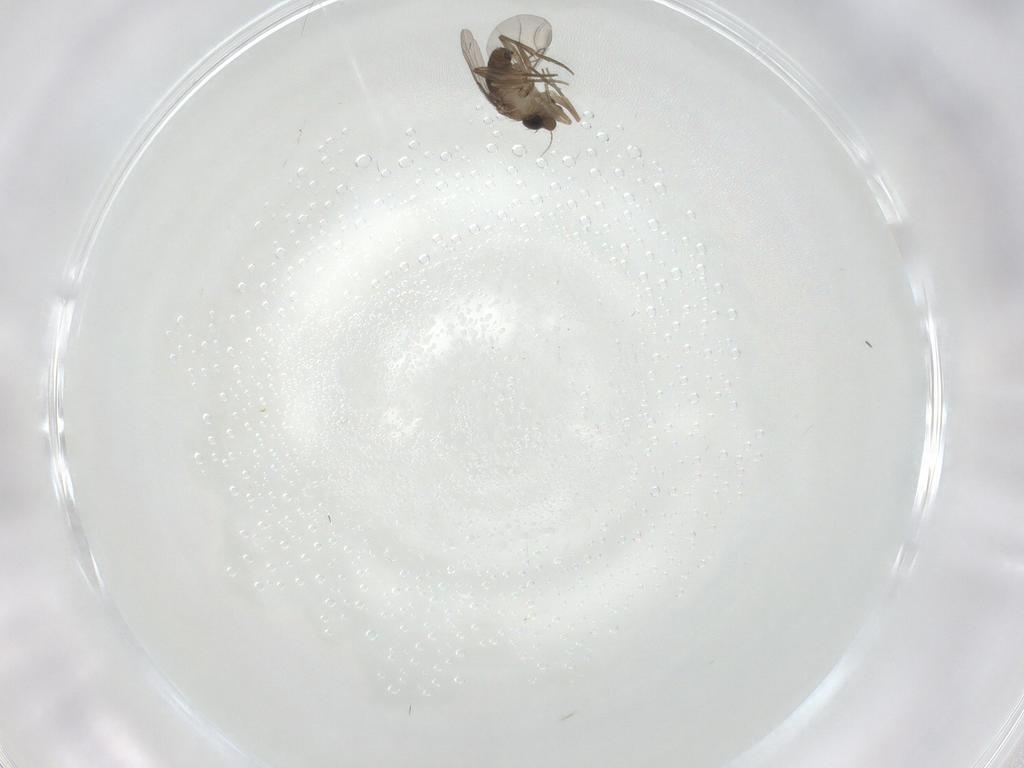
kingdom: Animalia
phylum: Arthropoda
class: Insecta
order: Diptera
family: Phoridae
